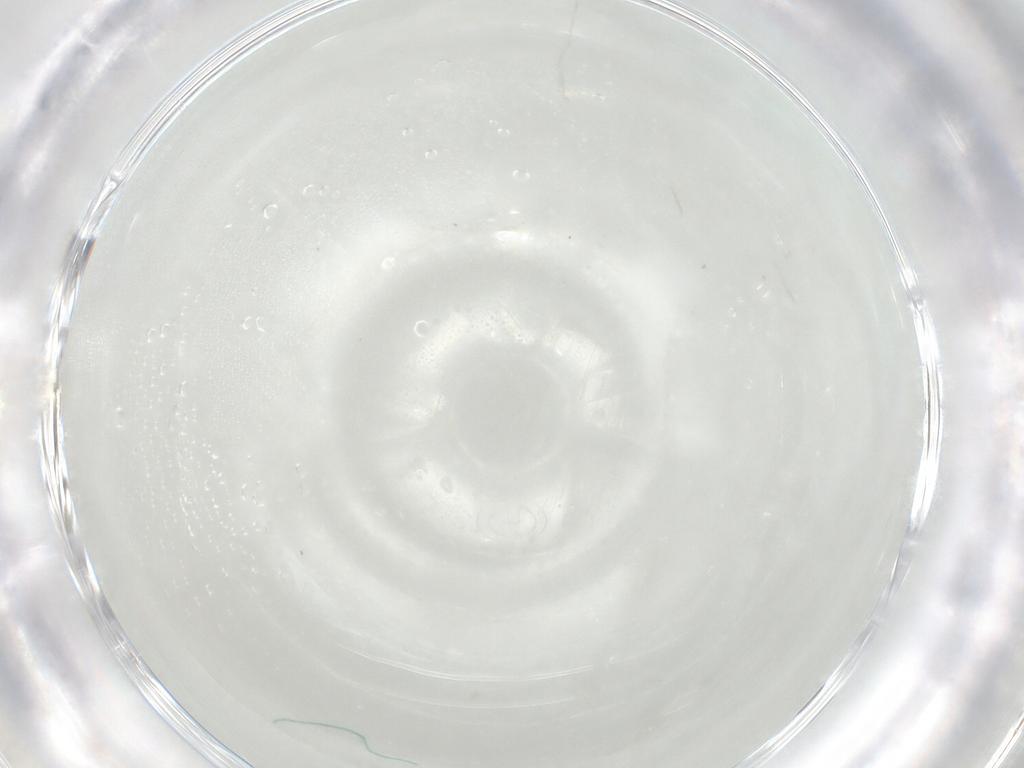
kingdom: Animalia
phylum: Arthropoda
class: Arachnida
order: Trombidiformes
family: Anystidae
